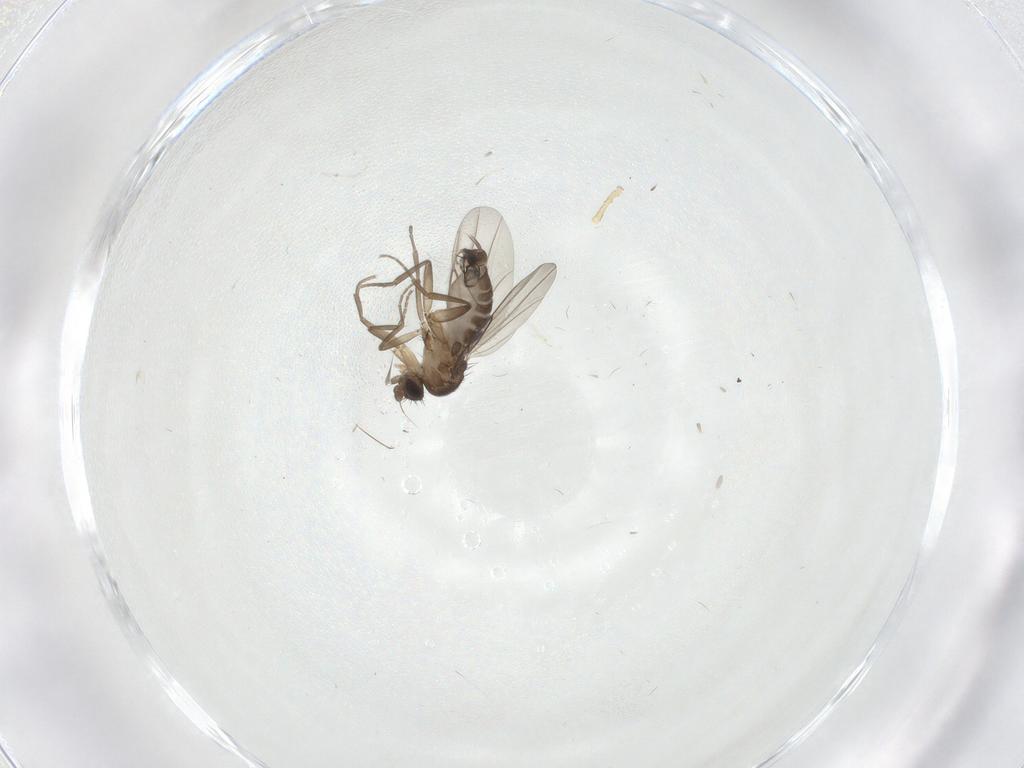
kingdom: Animalia
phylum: Arthropoda
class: Insecta
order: Diptera
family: Phoridae
